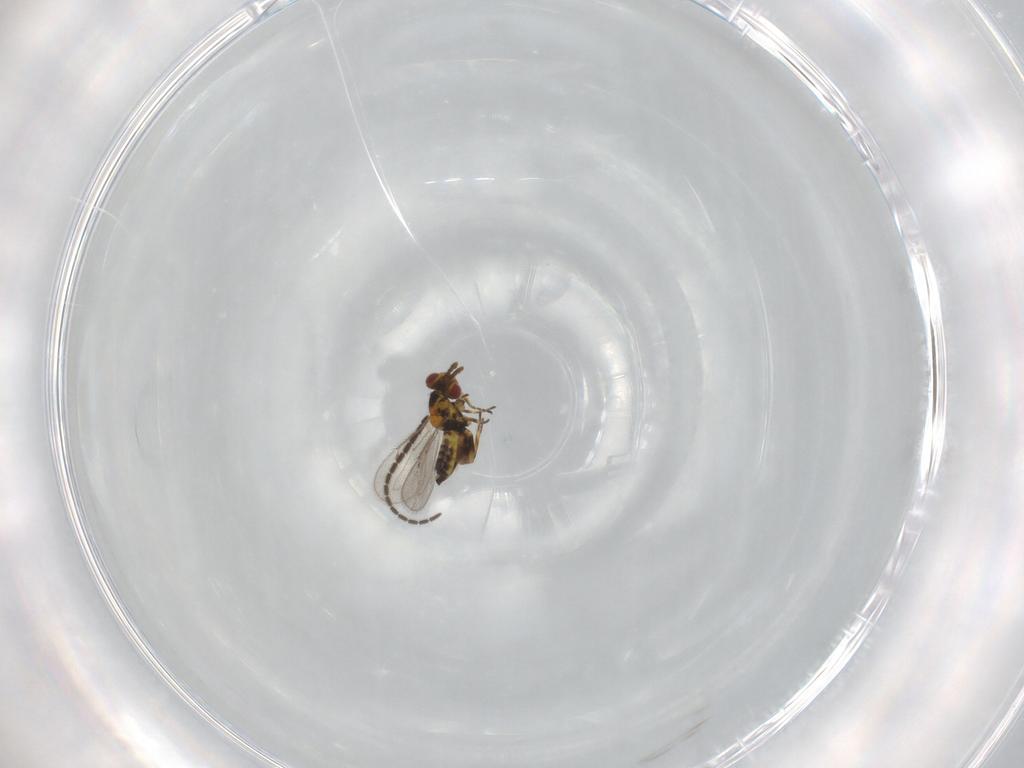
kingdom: Animalia
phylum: Arthropoda
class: Insecta
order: Hymenoptera
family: Eulophidae
